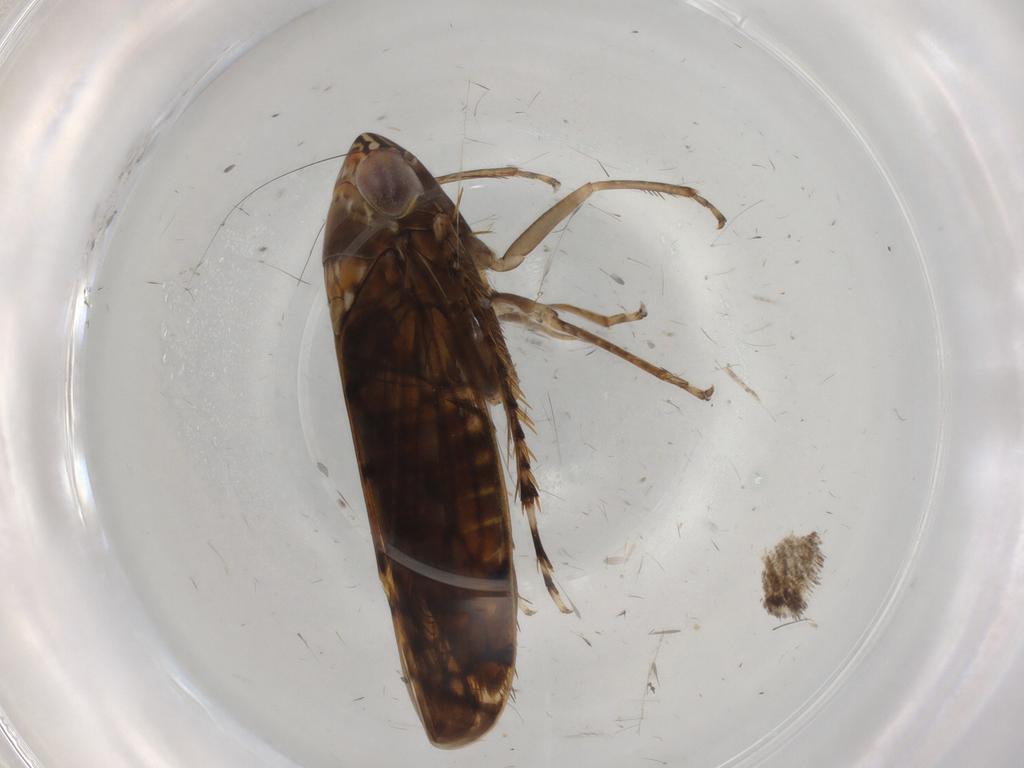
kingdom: Animalia
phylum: Arthropoda
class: Insecta
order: Hemiptera
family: Cicadellidae
